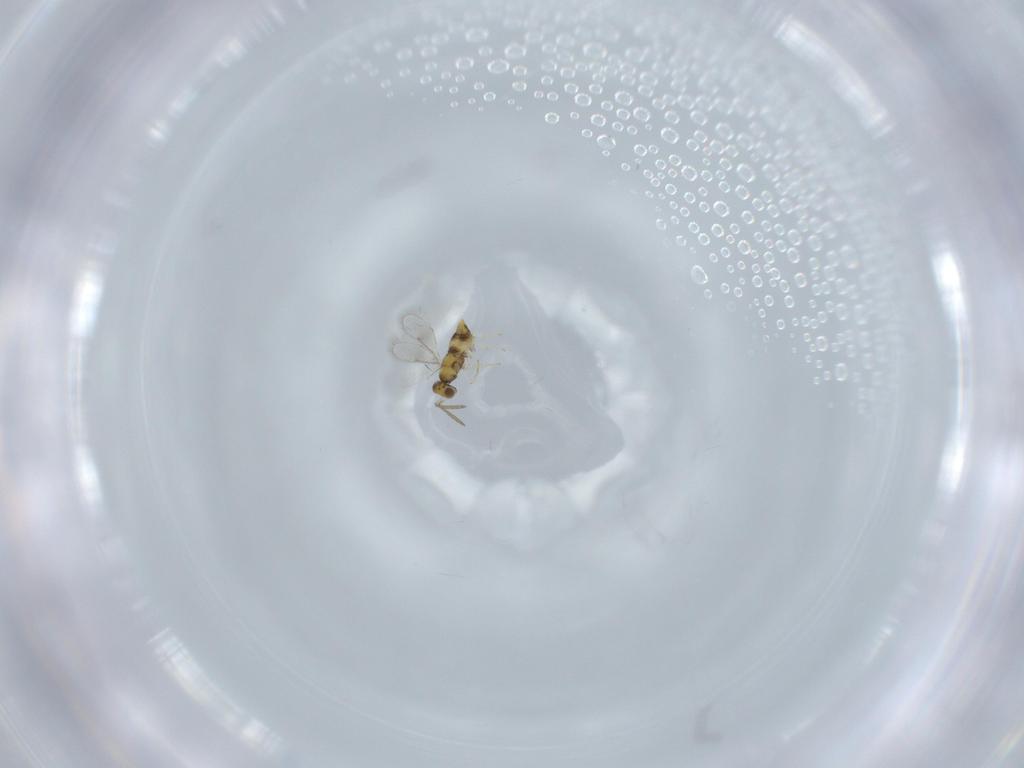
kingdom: Animalia
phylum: Arthropoda
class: Insecta
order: Hymenoptera
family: Aphelinidae
